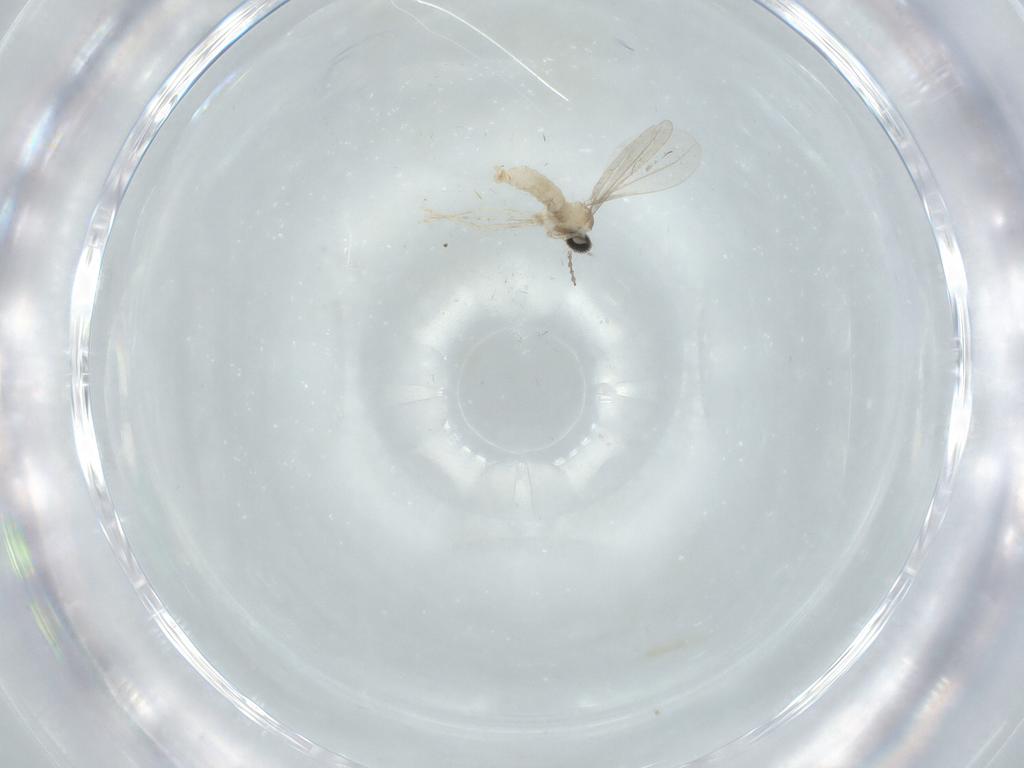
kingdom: Animalia
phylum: Arthropoda
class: Insecta
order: Diptera
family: Cecidomyiidae
